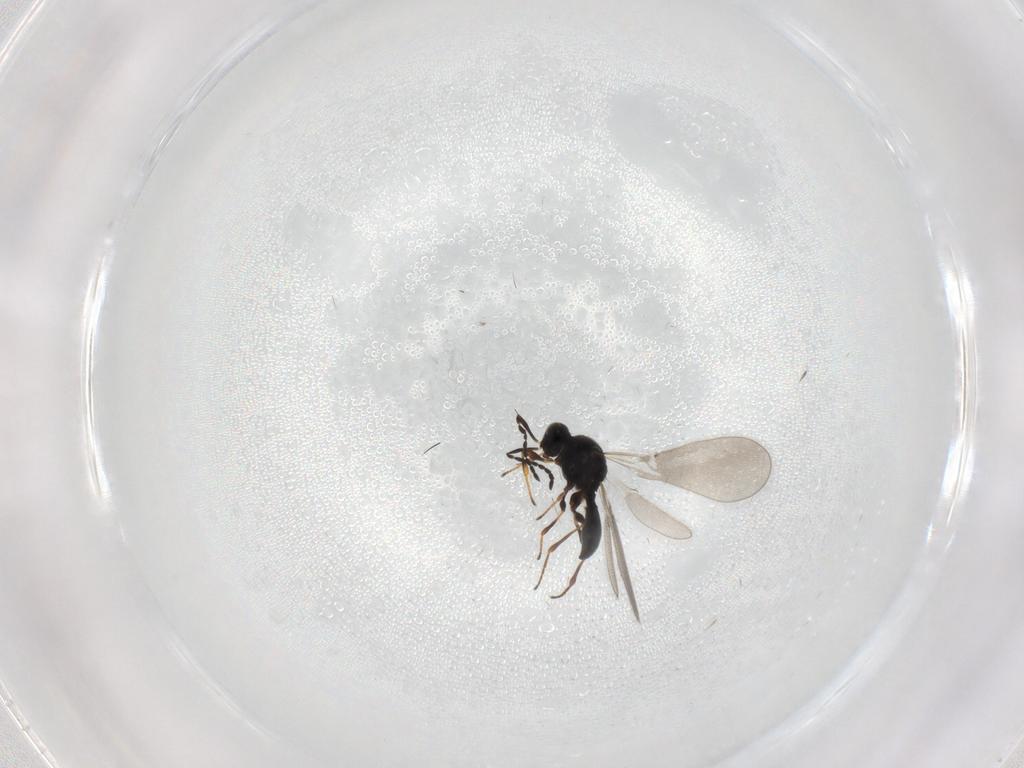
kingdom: Animalia
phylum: Arthropoda
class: Insecta
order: Hymenoptera
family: Platygastridae
